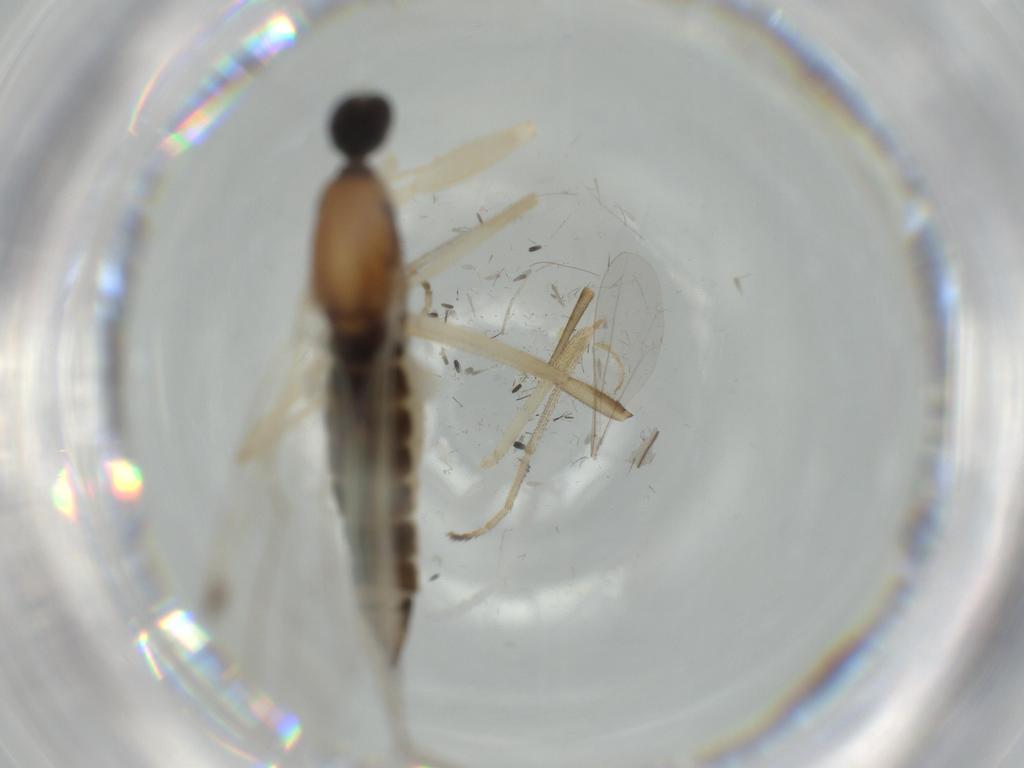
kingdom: Animalia
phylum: Arthropoda
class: Insecta
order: Diptera
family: Empididae
